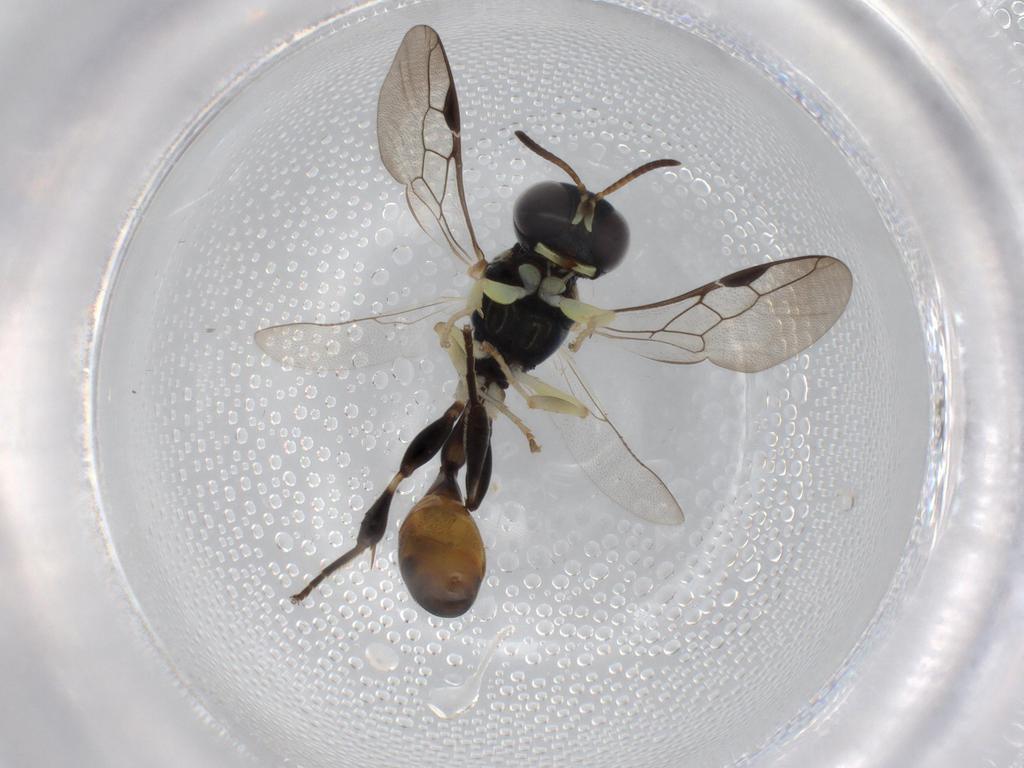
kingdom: Animalia
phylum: Arthropoda
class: Insecta
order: Hymenoptera
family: Crabronidae
